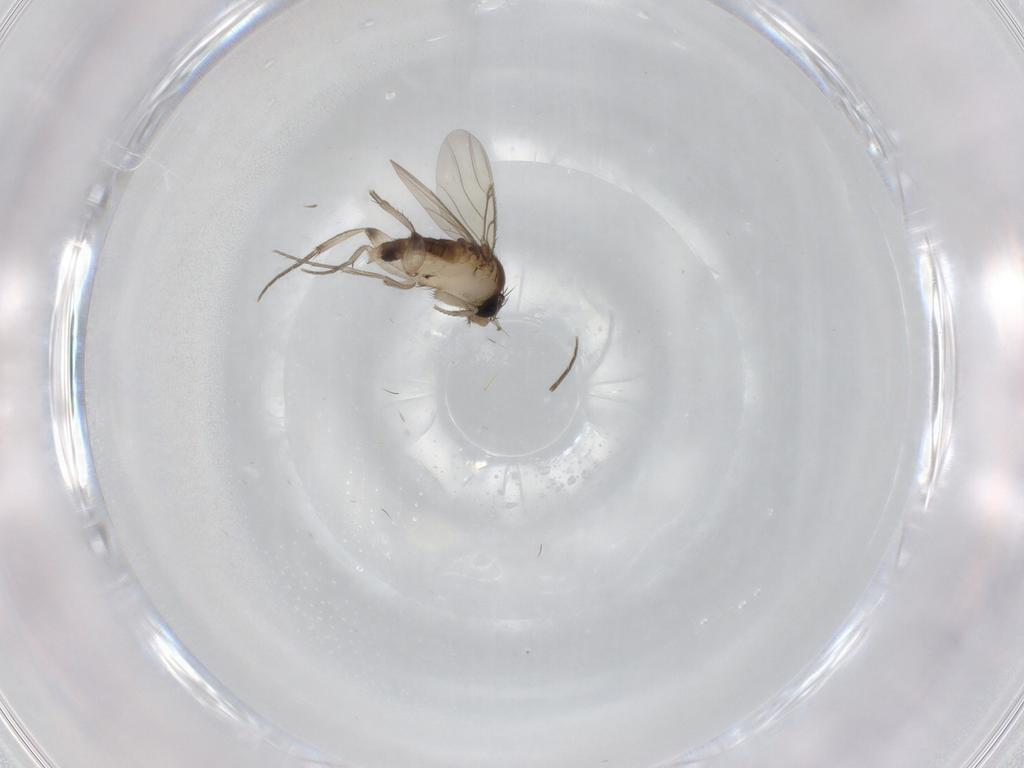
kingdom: Animalia
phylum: Arthropoda
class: Insecta
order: Diptera
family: Phoridae
